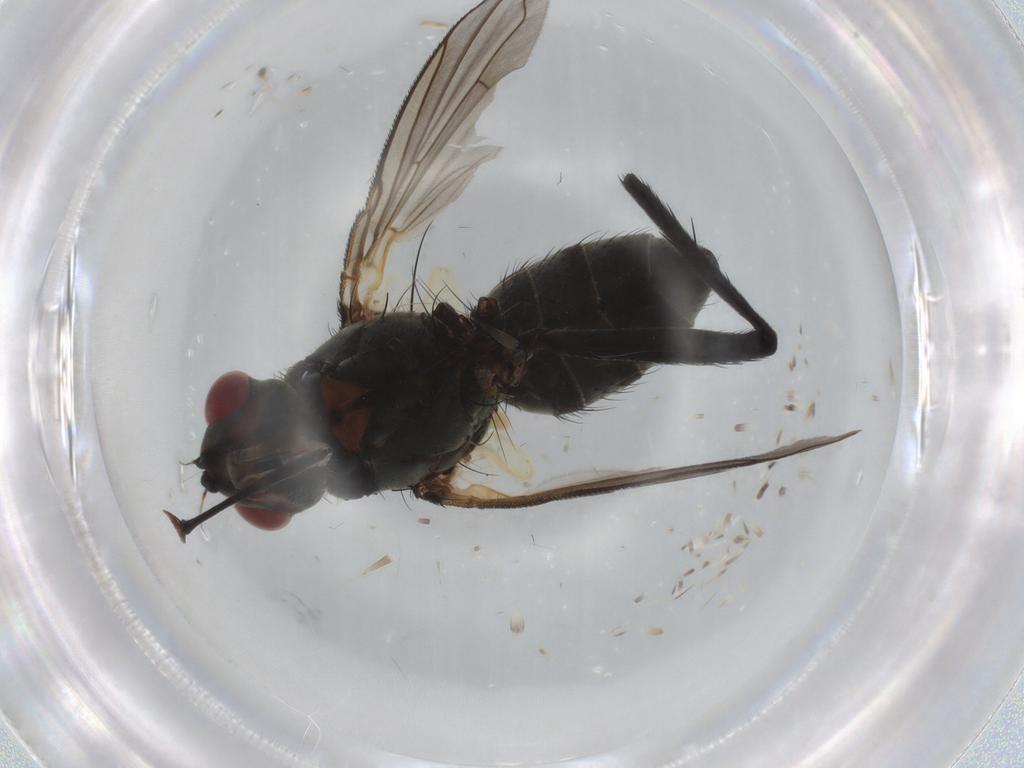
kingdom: Animalia
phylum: Arthropoda
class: Insecta
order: Diptera
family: Tachinidae
